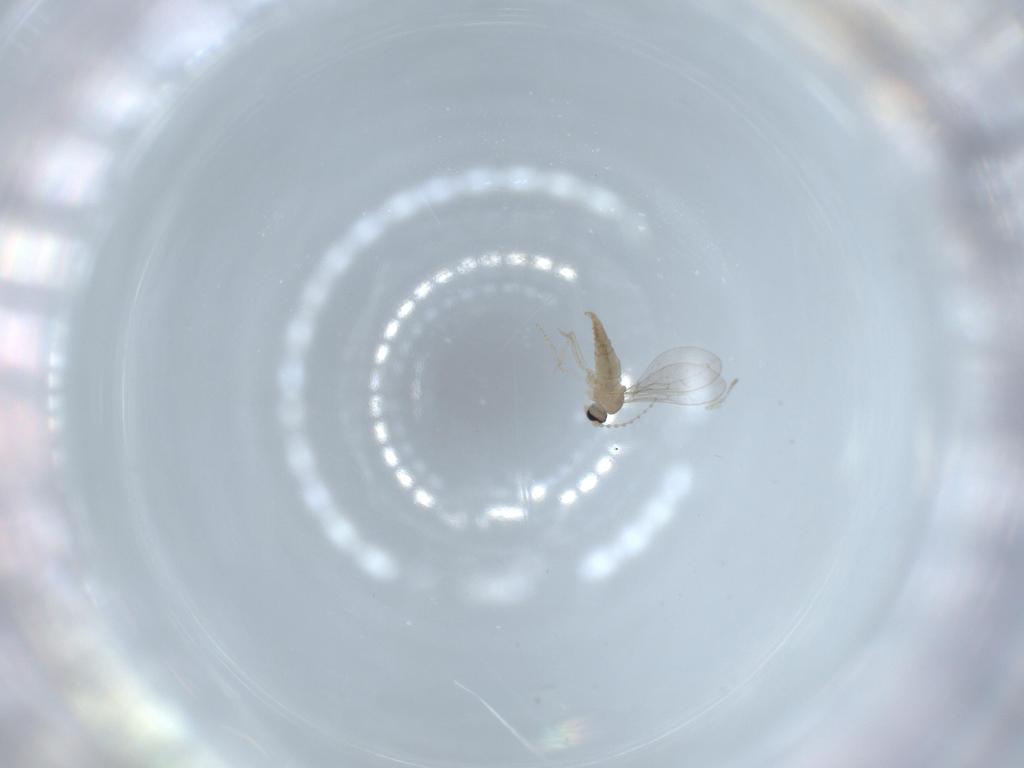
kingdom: Animalia
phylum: Arthropoda
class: Insecta
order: Diptera
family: Cecidomyiidae
